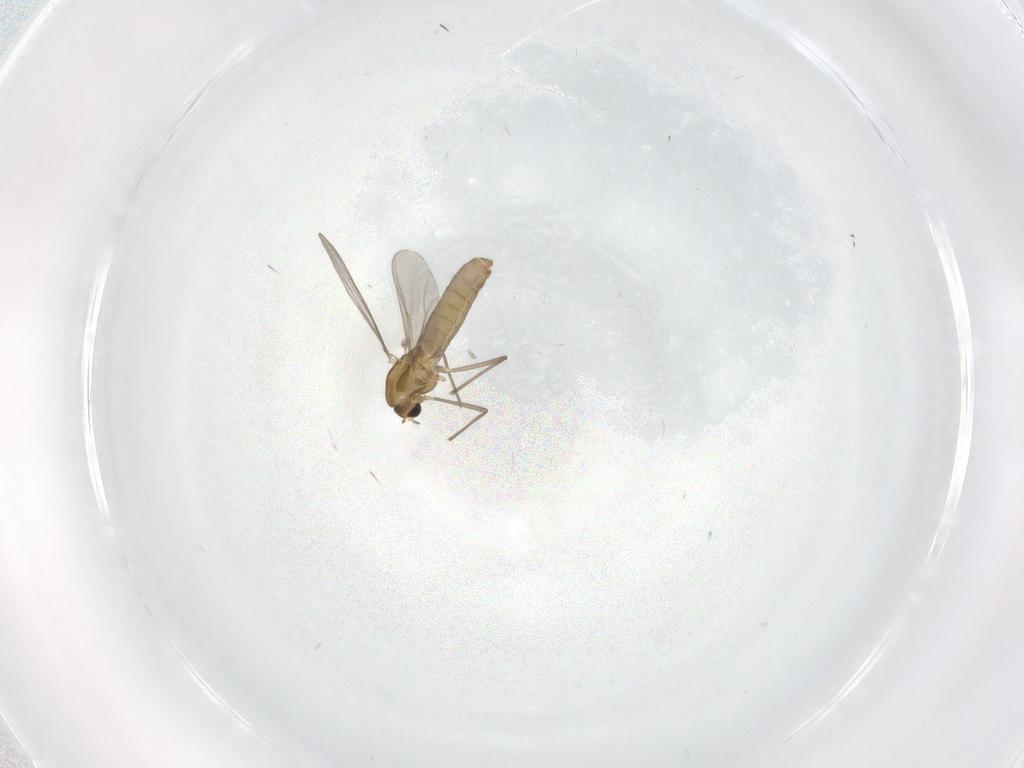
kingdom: Animalia
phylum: Arthropoda
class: Insecta
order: Diptera
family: Chironomidae
